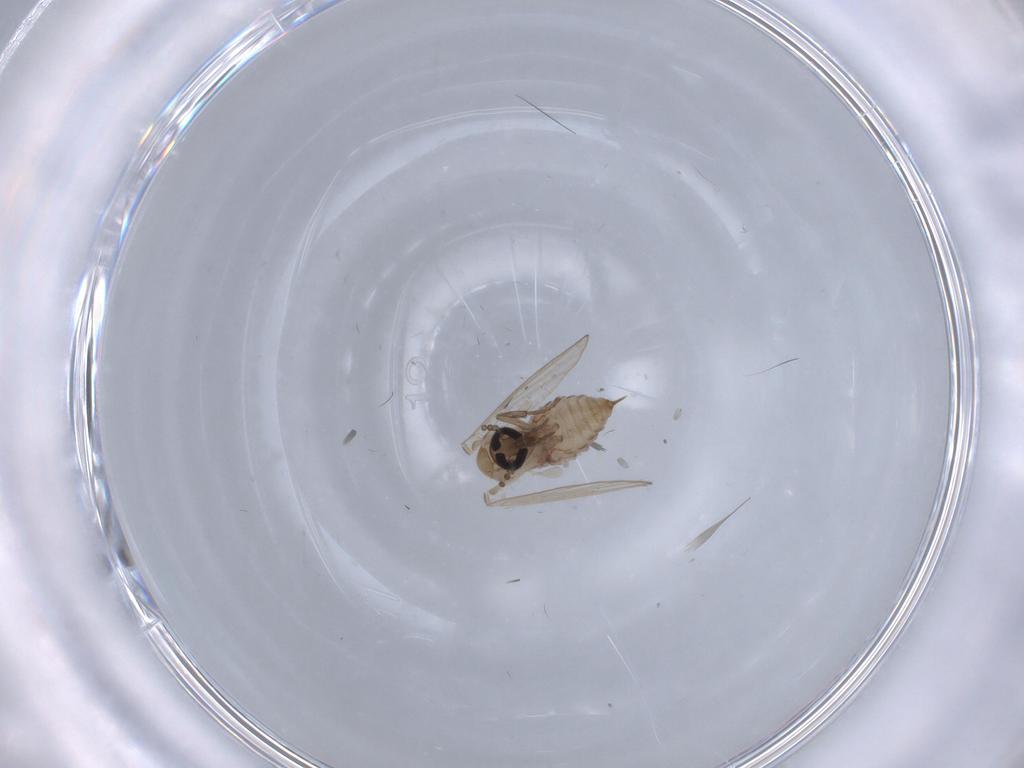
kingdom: Animalia
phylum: Arthropoda
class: Insecta
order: Diptera
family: Psychodidae
